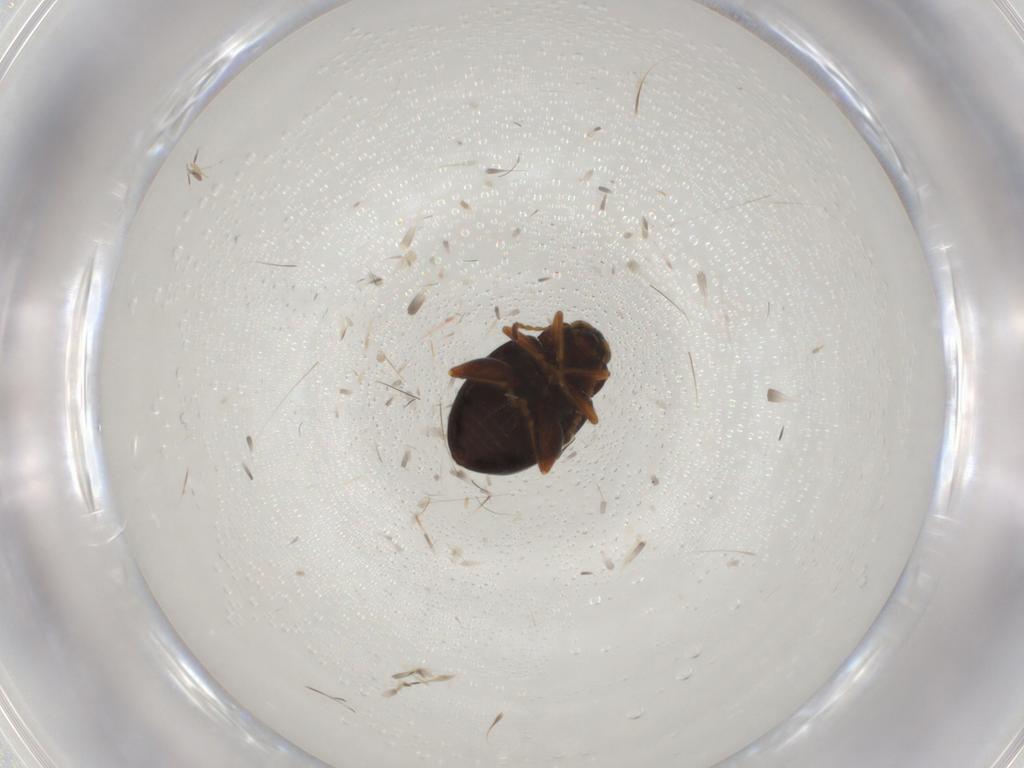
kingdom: Animalia
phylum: Arthropoda
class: Insecta
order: Coleoptera
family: Chrysomelidae
